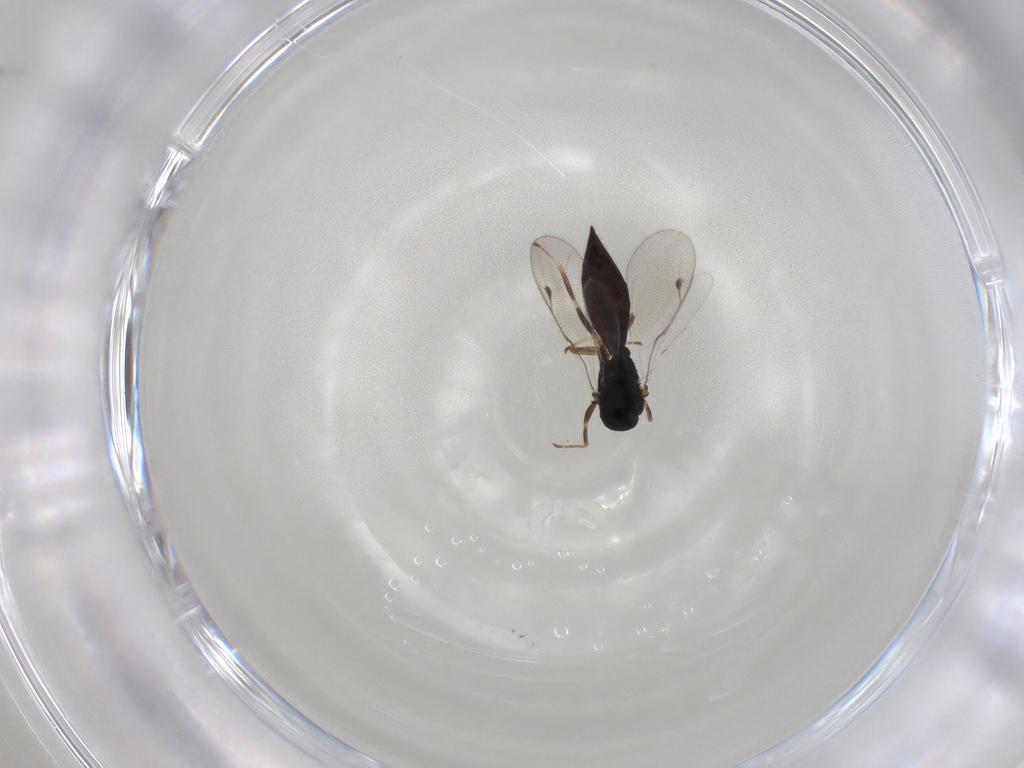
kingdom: Animalia
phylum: Arthropoda
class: Insecta
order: Hymenoptera
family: Pteromalidae
